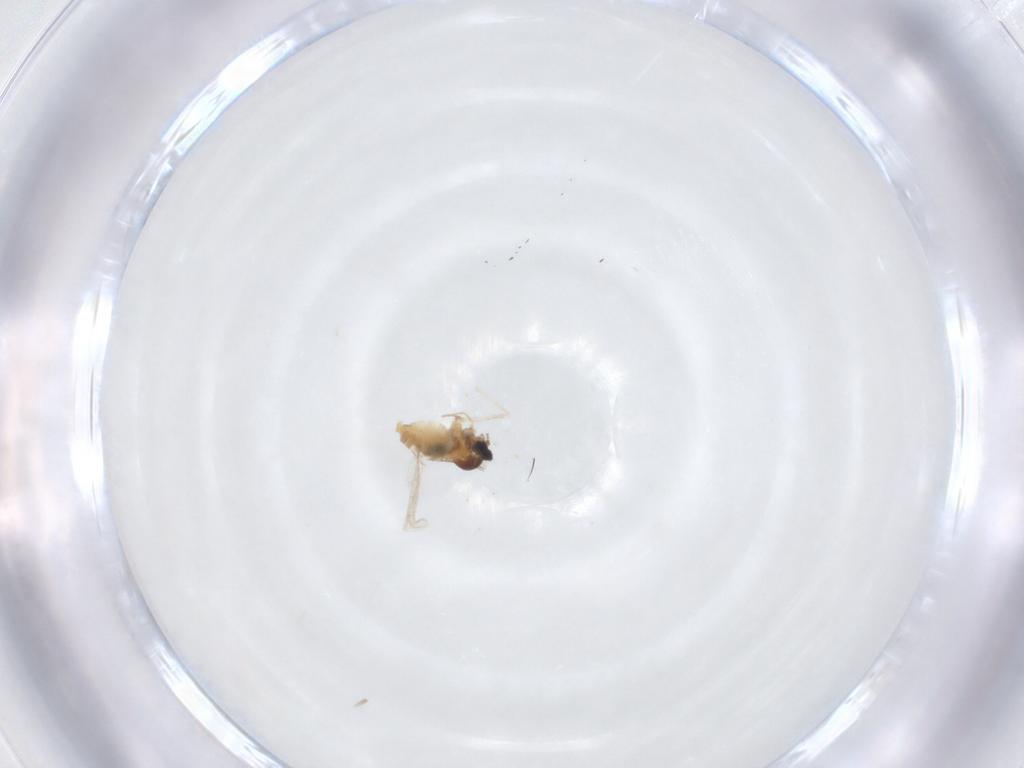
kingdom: Animalia
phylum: Arthropoda
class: Insecta
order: Diptera
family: Cecidomyiidae
